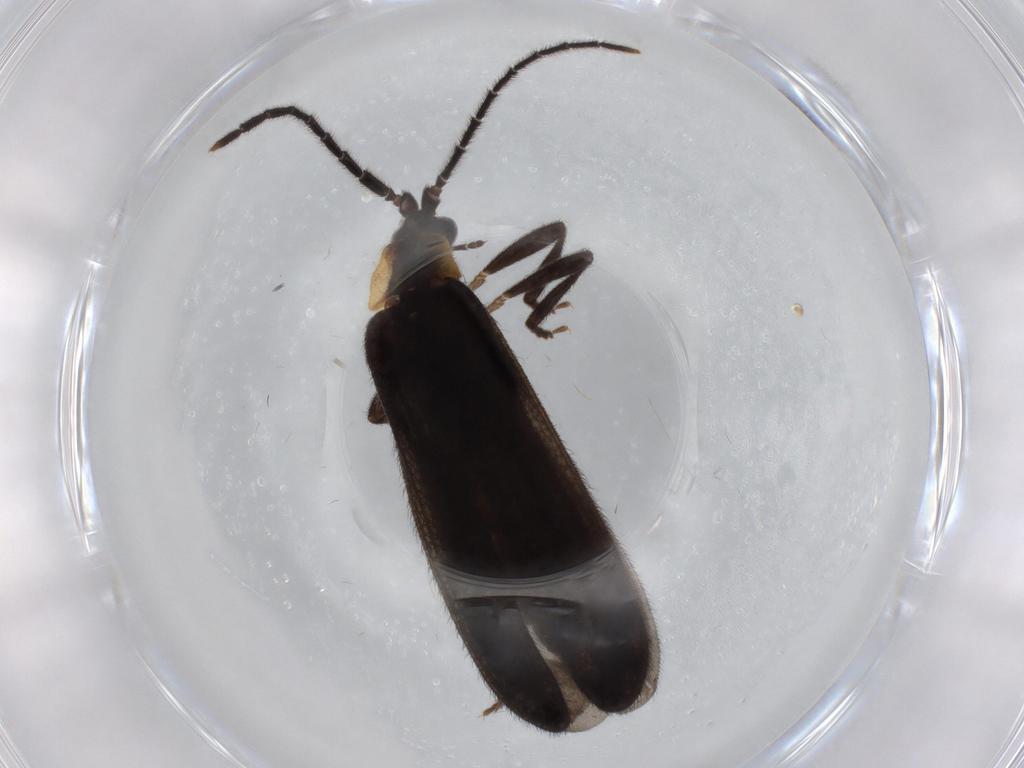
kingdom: Animalia
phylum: Arthropoda
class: Insecta
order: Coleoptera
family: Lycidae
